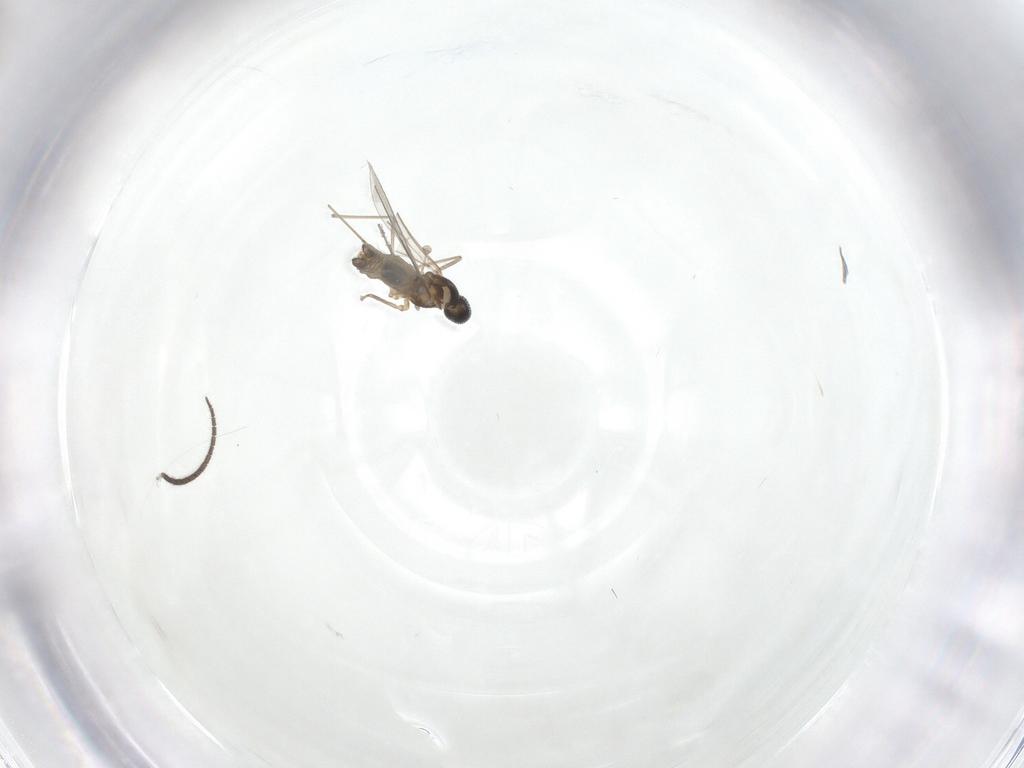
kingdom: Animalia
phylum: Arthropoda
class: Insecta
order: Diptera
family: Cecidomyiidae
